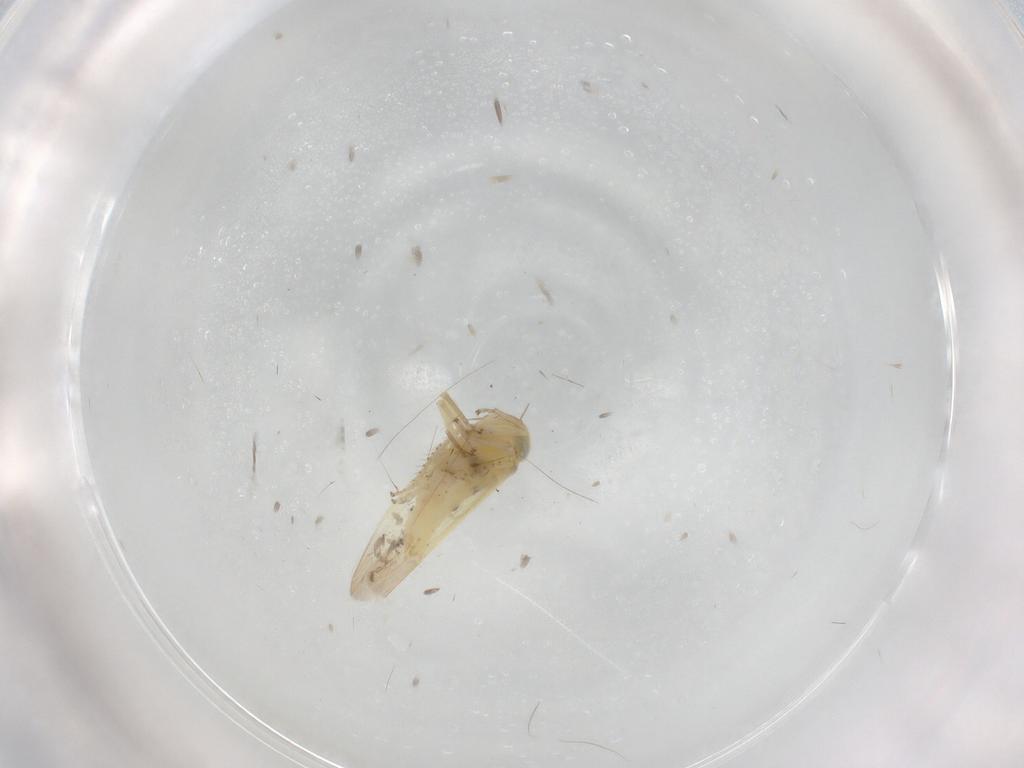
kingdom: Animalia
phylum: Arthropoda
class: Insecta
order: Hemiptera
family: Cicadellidae
